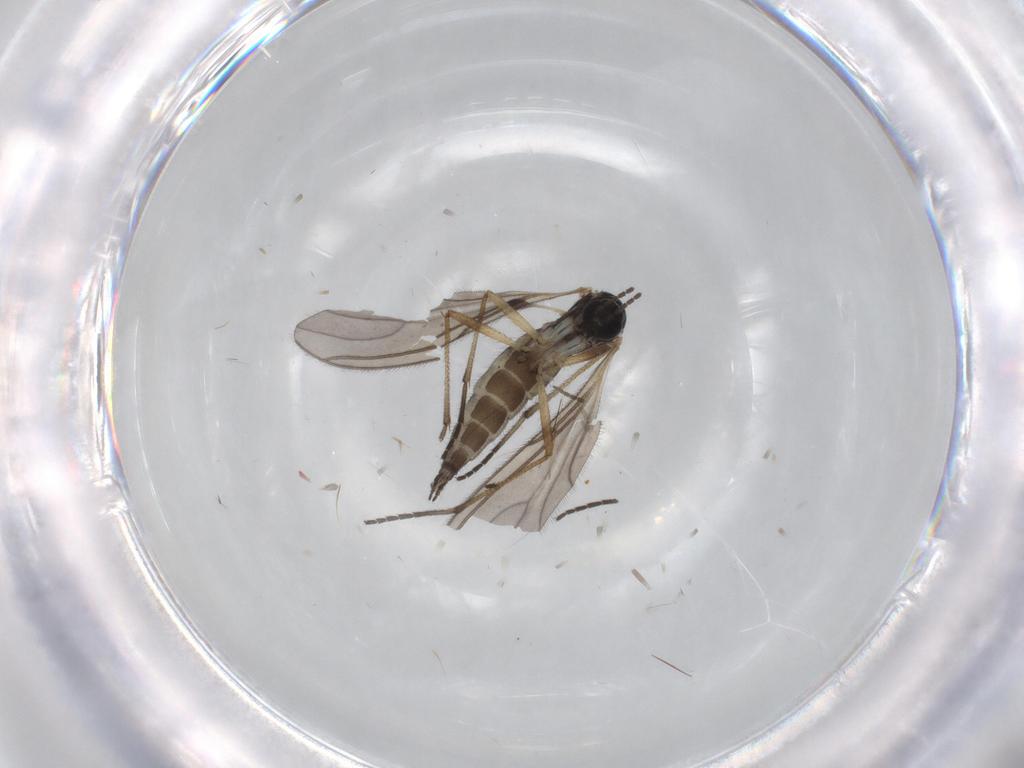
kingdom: Animalia
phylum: Arthropoda
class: Insecta
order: Diptera
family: Sciaridae
